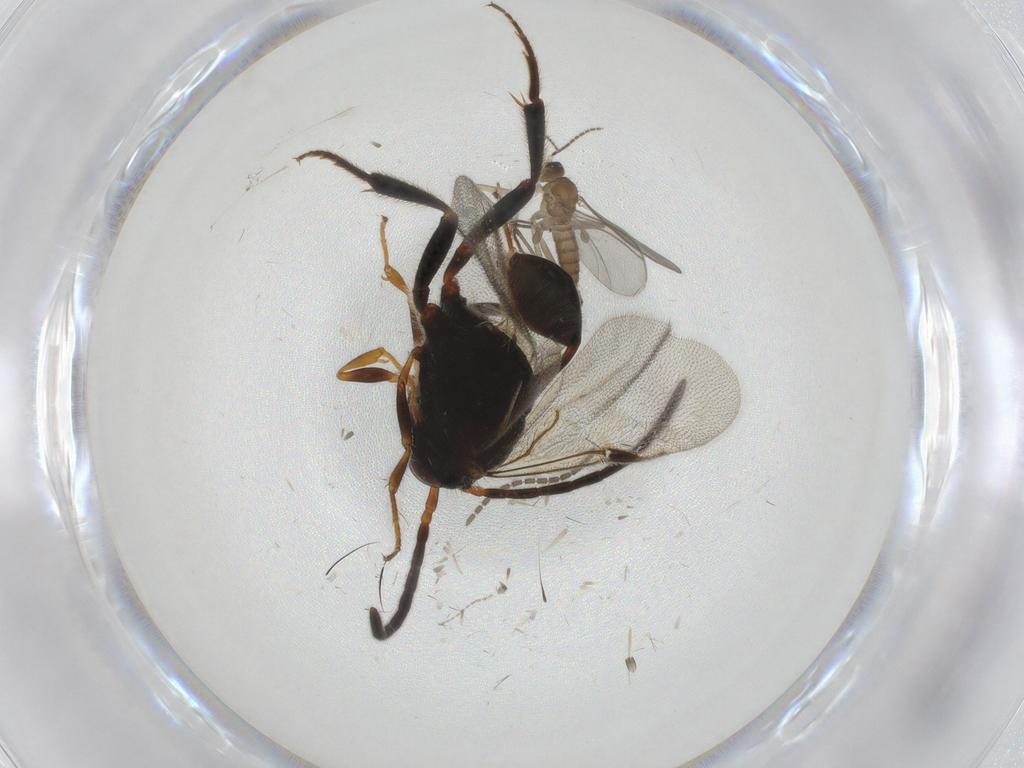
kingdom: Animalia
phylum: Arthropoda
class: Insecta
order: Diptera
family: Sciaridae
